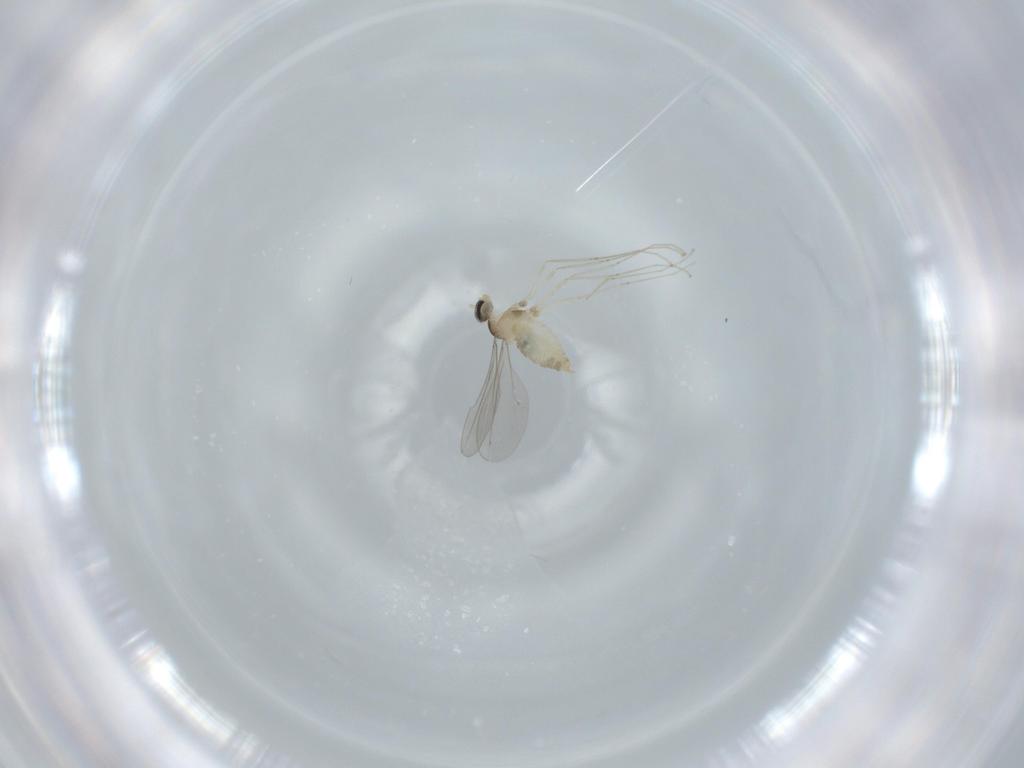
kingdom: Animalia
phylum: Arthropoda
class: Insecta
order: Diptera
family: Cecidomyiidae
